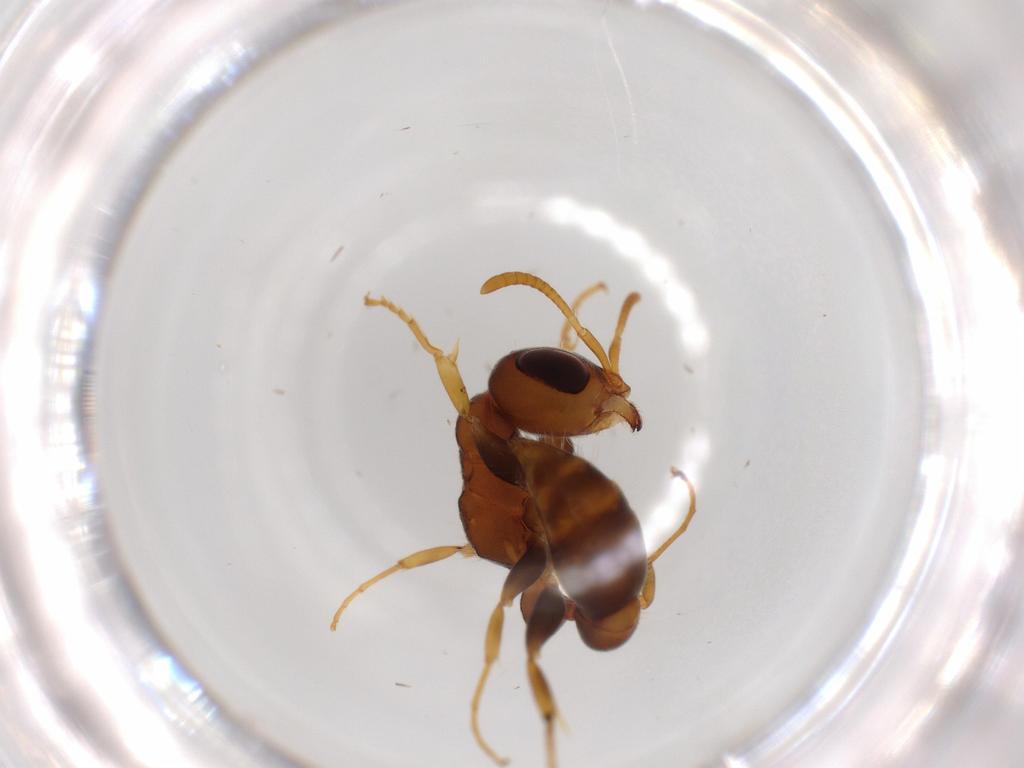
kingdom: Animalia
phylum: Arthropoda
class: Insecta
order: Hymenoptera
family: Formicidae
